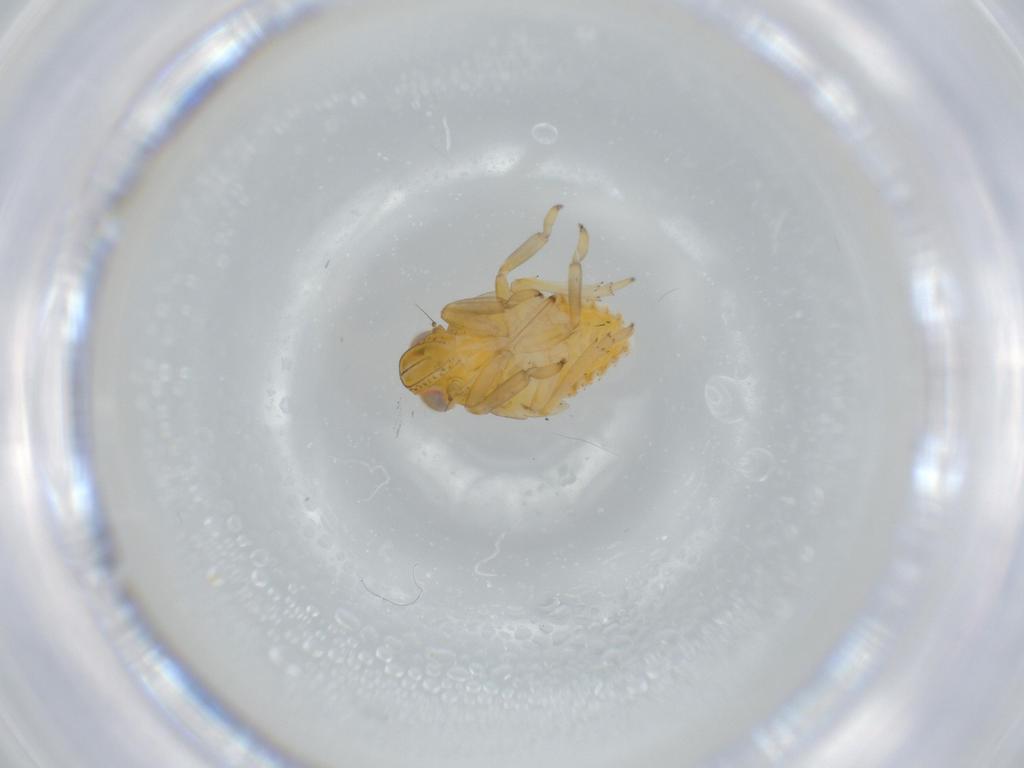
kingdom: Animalia
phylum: Arthropoda
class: Insecta
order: Hemiptera
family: Issidae
